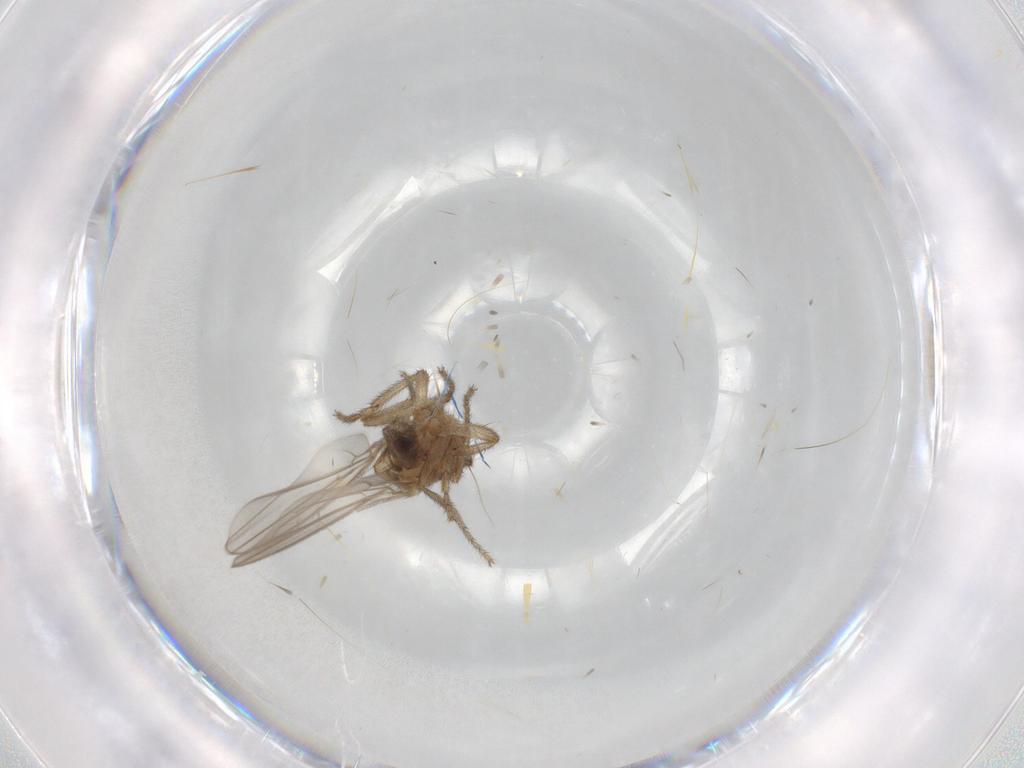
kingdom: Animalia
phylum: Arthropoda
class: Insecta
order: Diptera
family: Sphaeroceridae
